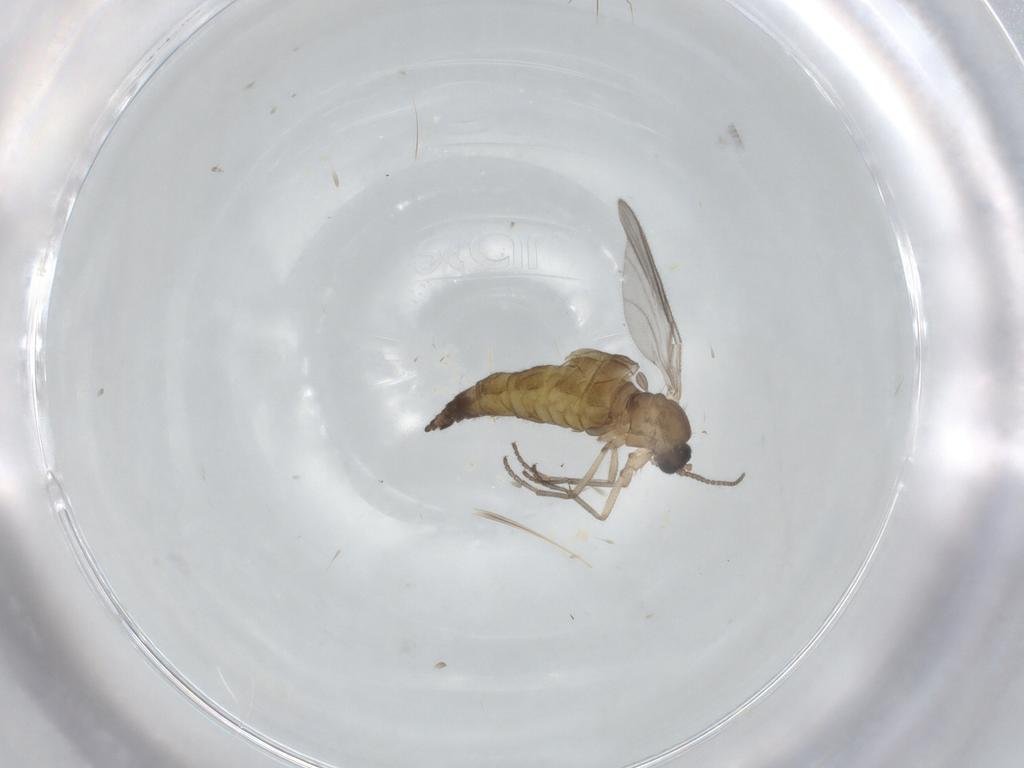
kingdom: Animalia
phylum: Arthropoda
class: Insecta
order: Diptera
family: Sciaridae
